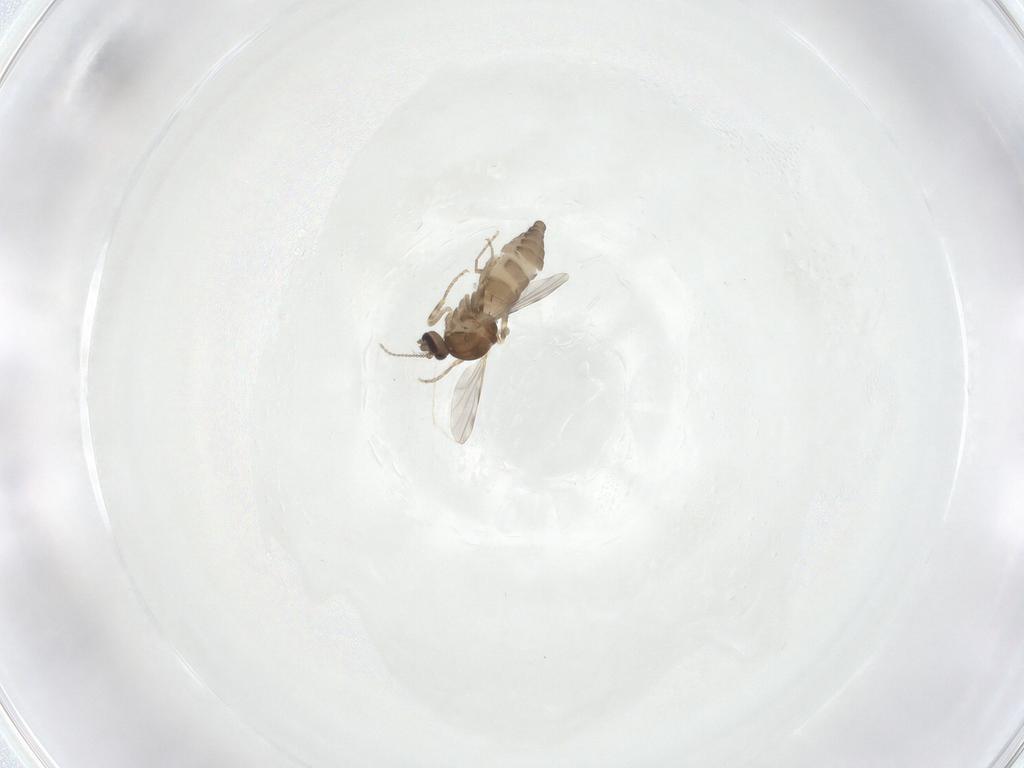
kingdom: Animalia
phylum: Arthropoda
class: Insecta
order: Diptera
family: Ceratopogonidae
